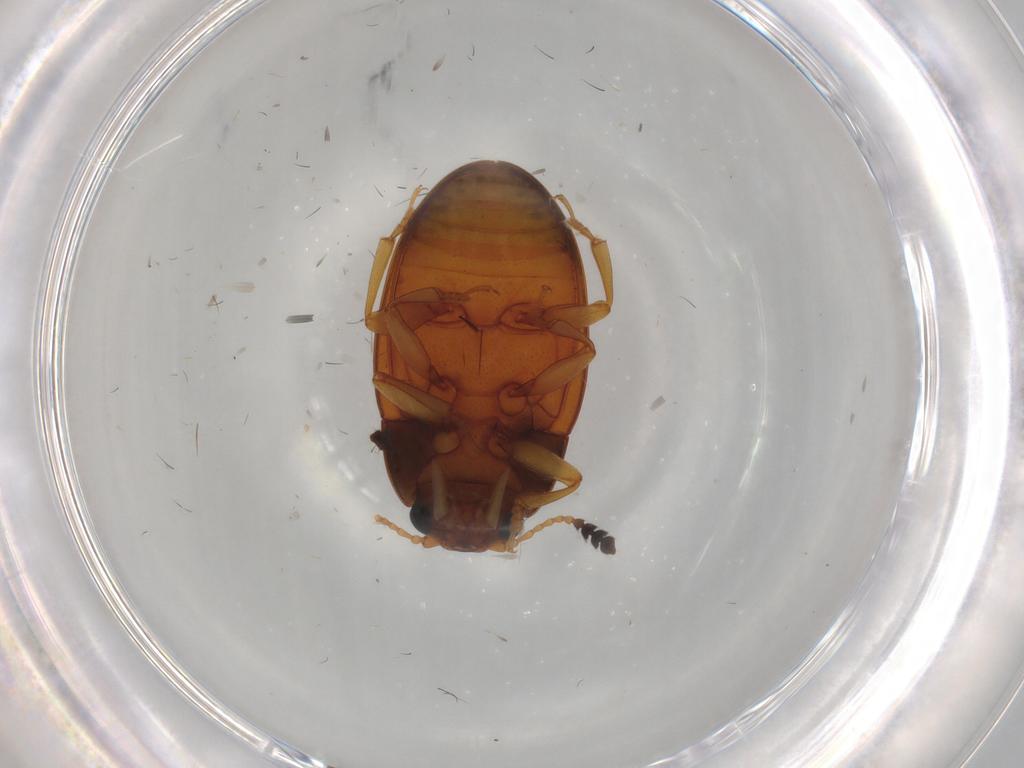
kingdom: Animalia
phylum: Arthropoda
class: Insecta
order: Coleoptera
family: Erotylidae
